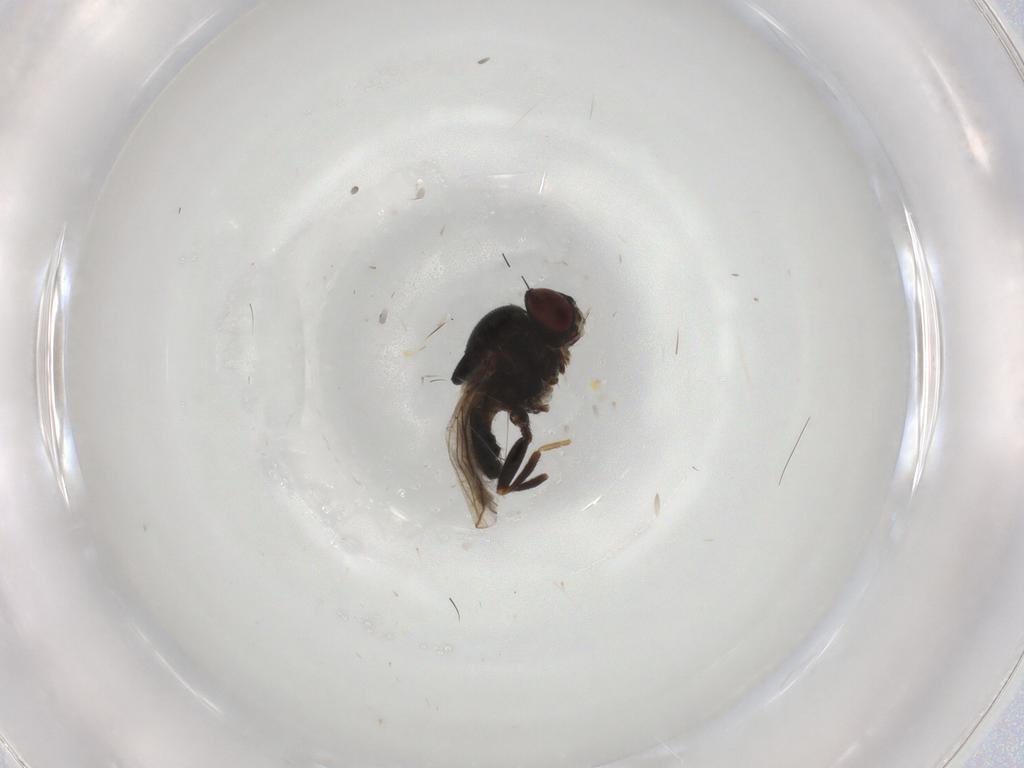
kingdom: Animalia
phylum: Arthropoda
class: Insecta
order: Diptera
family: Chloropidae
